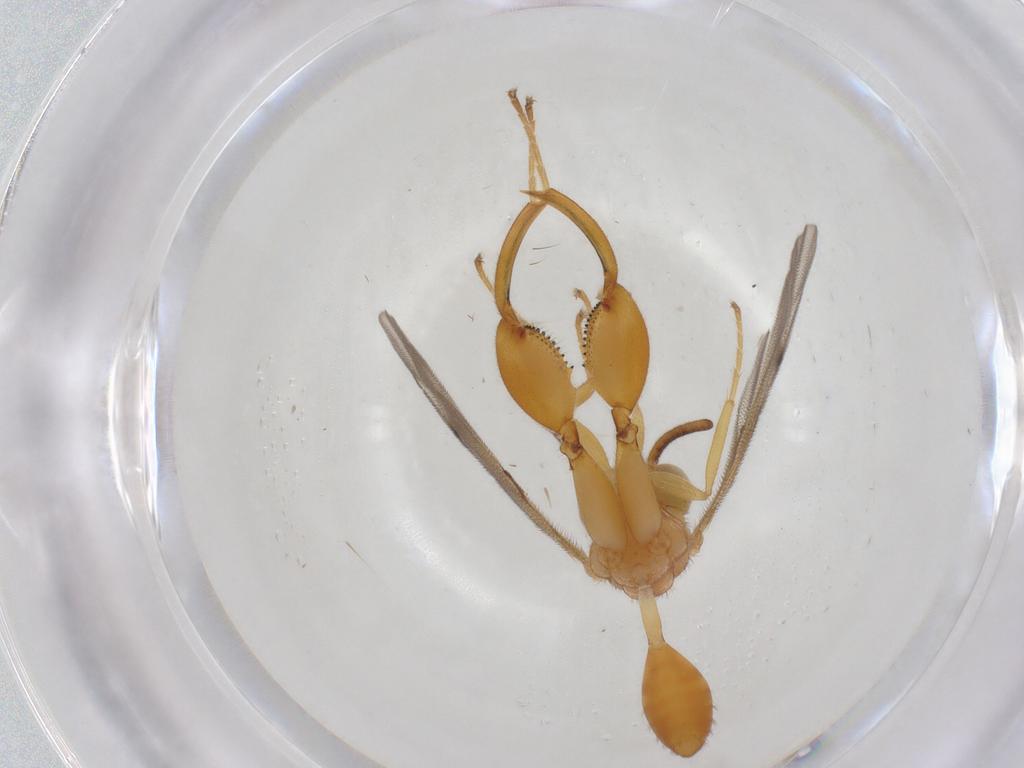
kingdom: Animalia
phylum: Arthropoda
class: Insecta
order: Hymenoptera
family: Chalcididae
